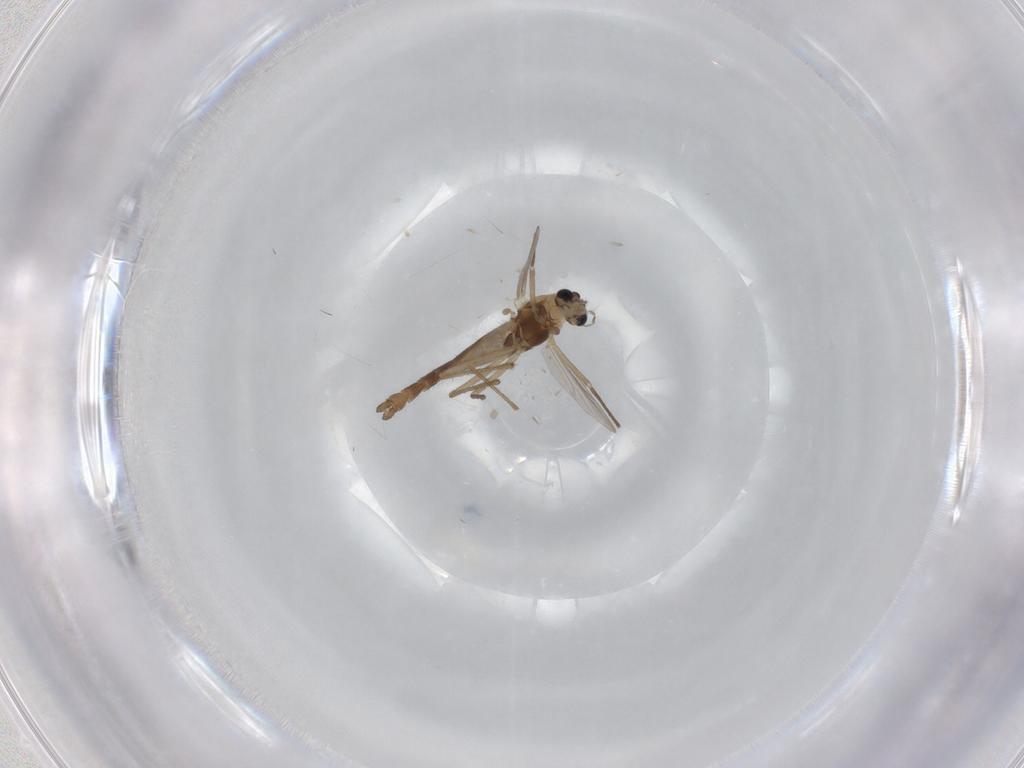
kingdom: Animalia
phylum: Arthropoda
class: Insecta
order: Diptera
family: Chironomidae
